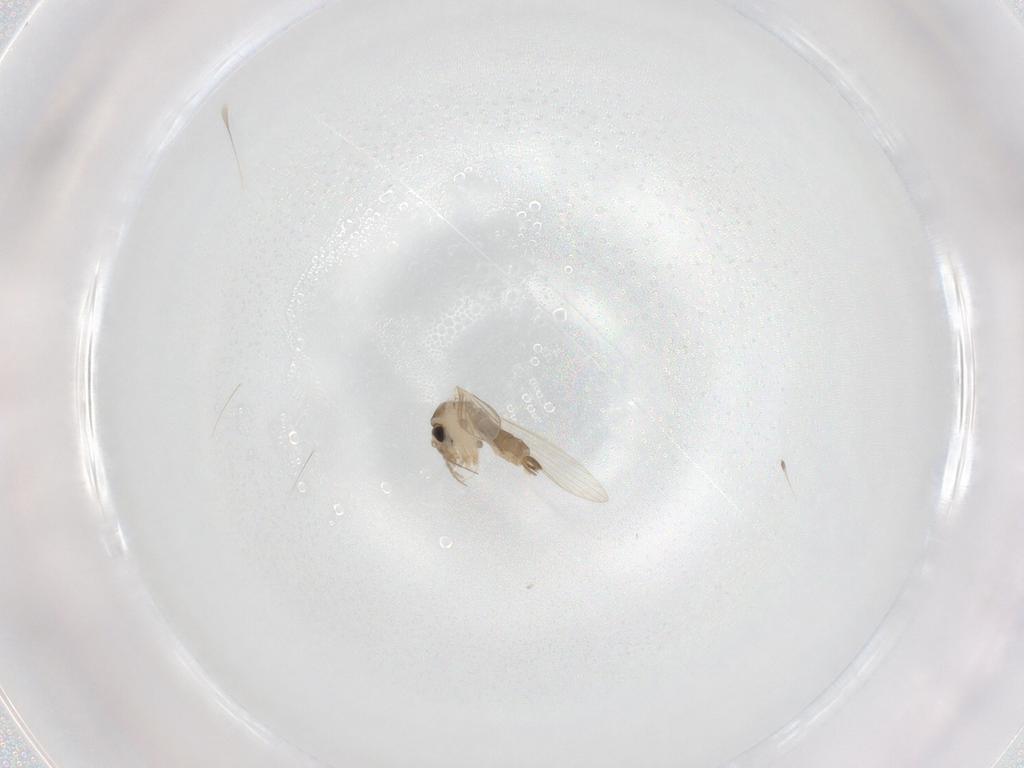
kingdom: Animalia
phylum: Arthropoda
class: Insecta
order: Diptera
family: Psychodidae
